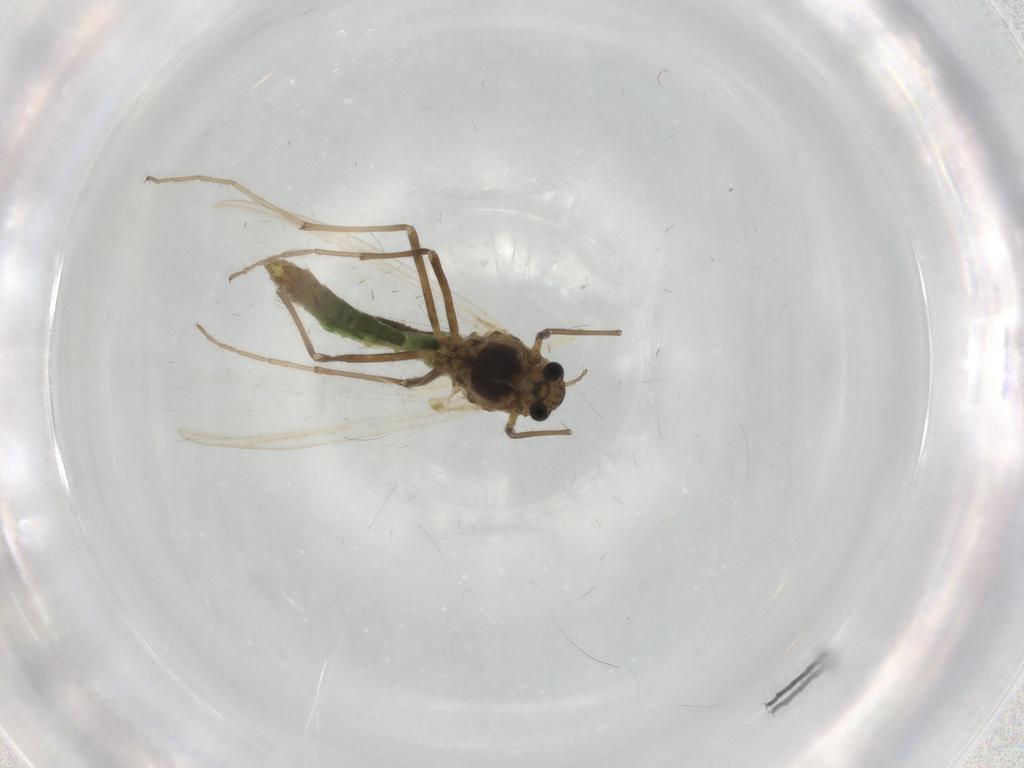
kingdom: Animalia
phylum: Arthropoda
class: Insecta
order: Diptera
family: Chironomidae
